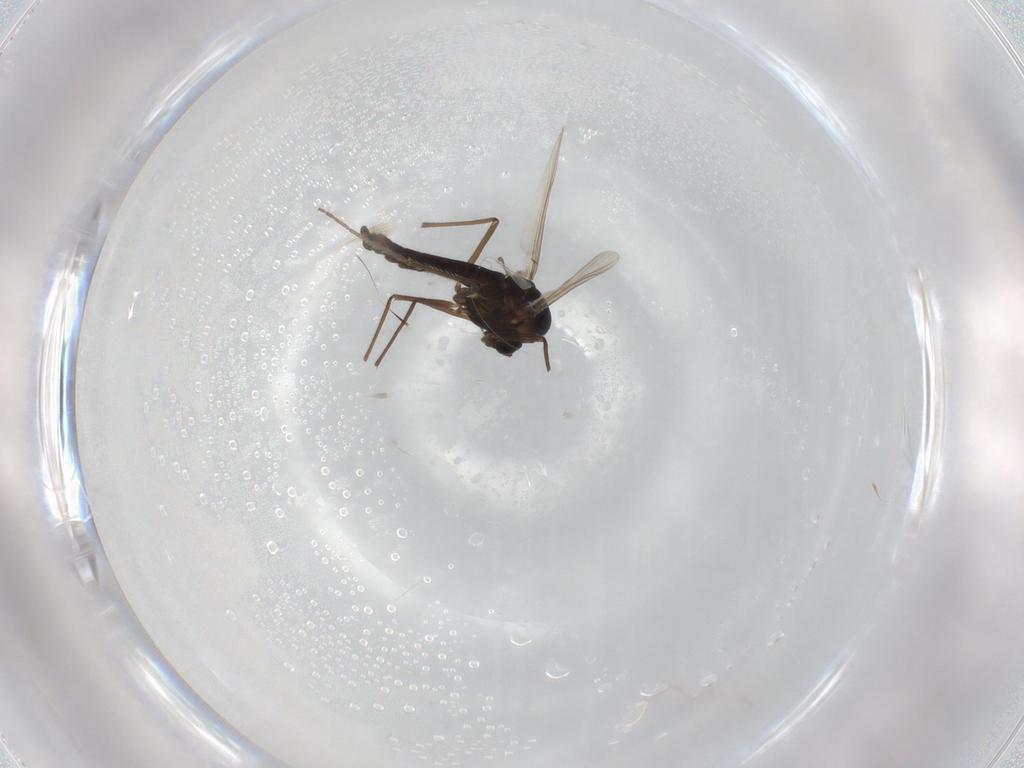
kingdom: Animalia
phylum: Arthropoda
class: Insecta
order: Diptera
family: Chironomidae
